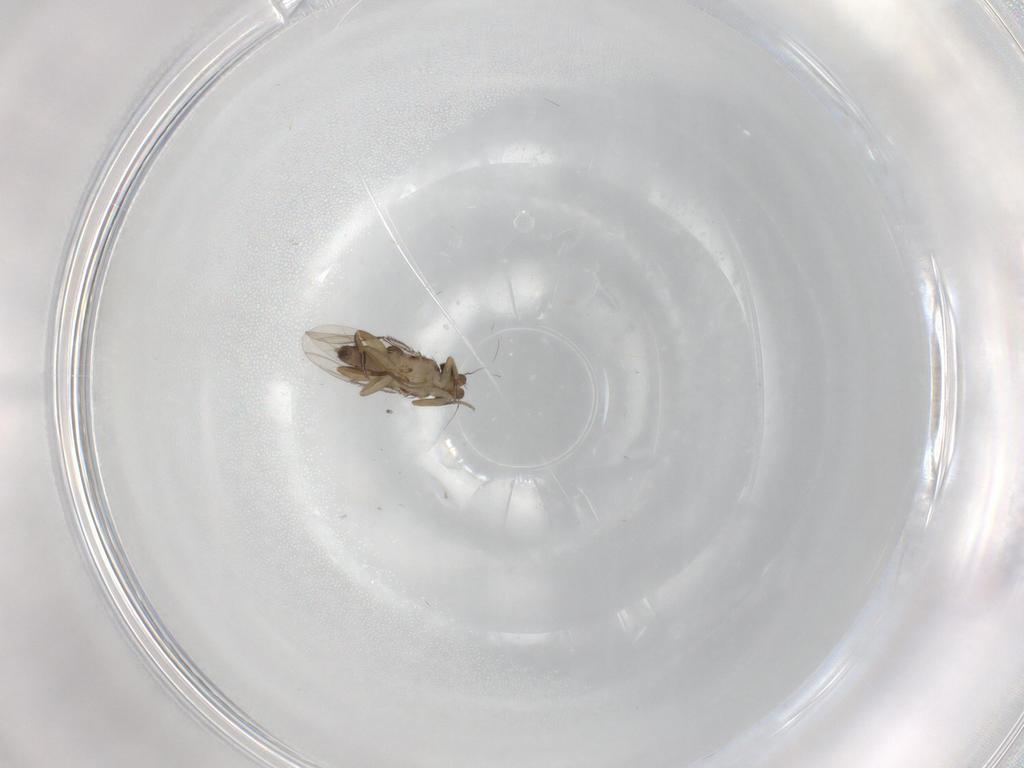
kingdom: Animalia
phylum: Arthropoda
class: Insecta
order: Diptera
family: Phoridae
